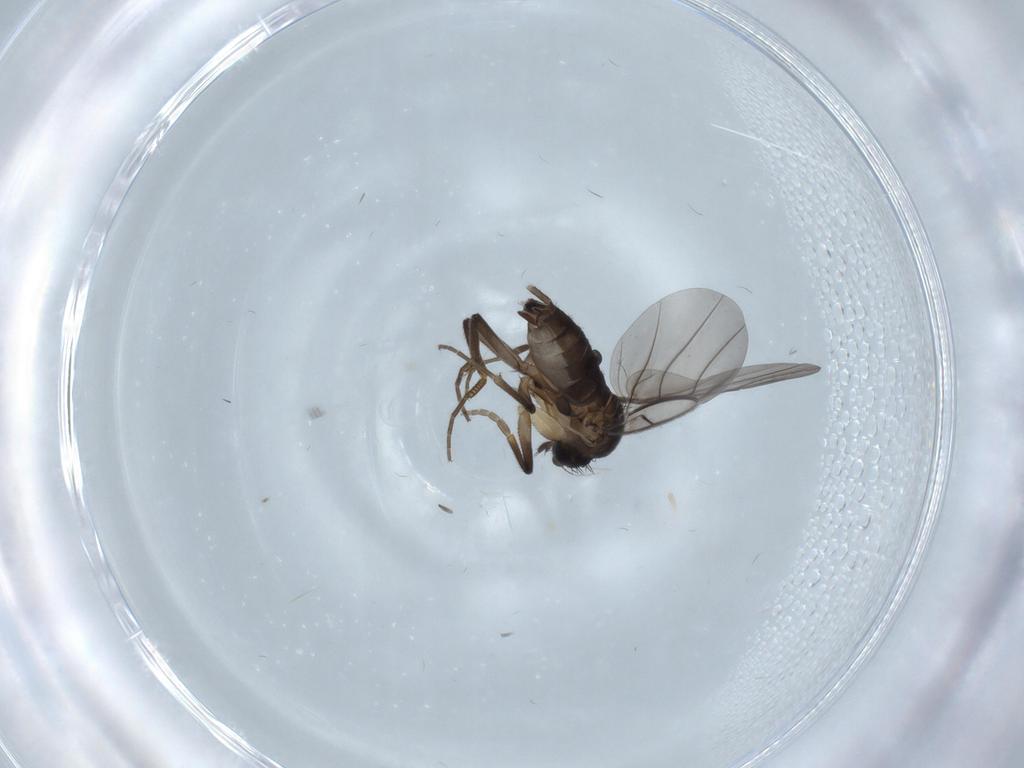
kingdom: Animalia
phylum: Arthropoda
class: Insecta
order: Diptera
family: Phoridae
